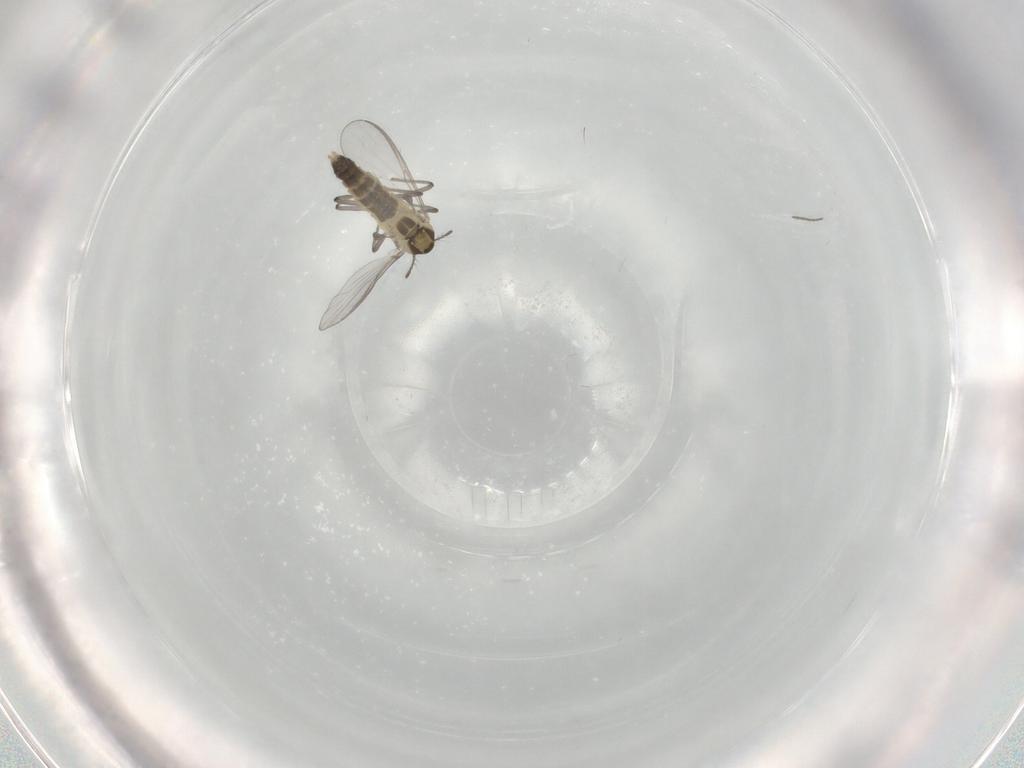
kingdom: Animalia
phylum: Arthropoda
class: Insecta
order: Diptera
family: Chironomidae
